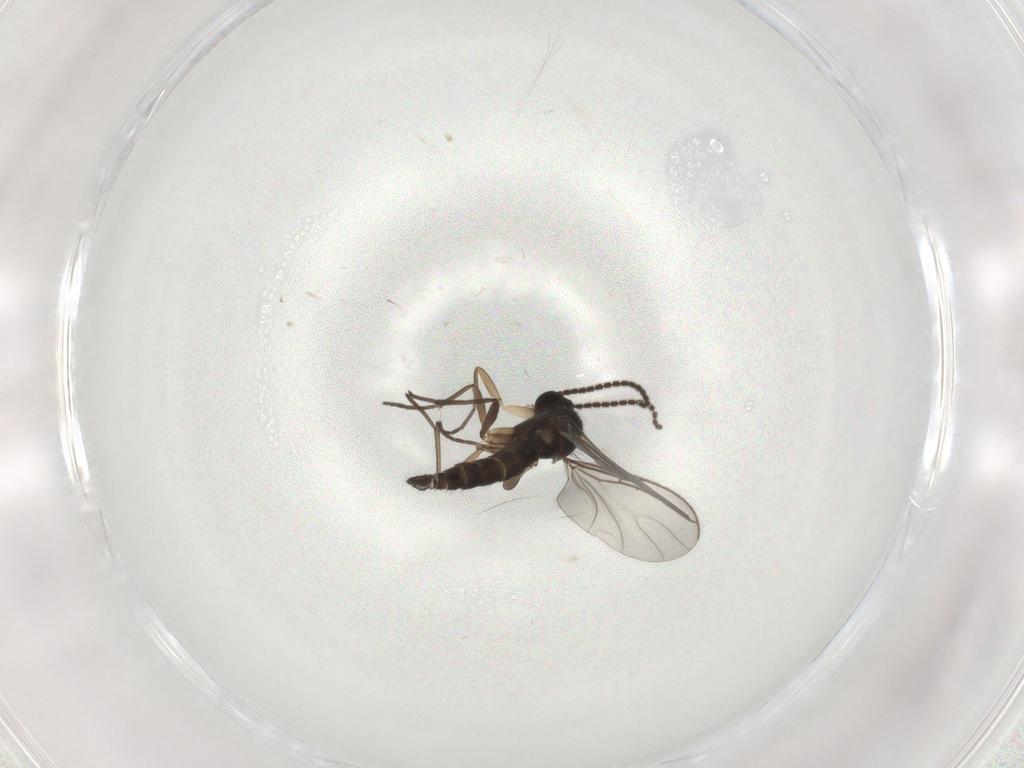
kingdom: Animalia
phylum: Arthropoda
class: Insecta
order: Diptera
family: Sciaridae
